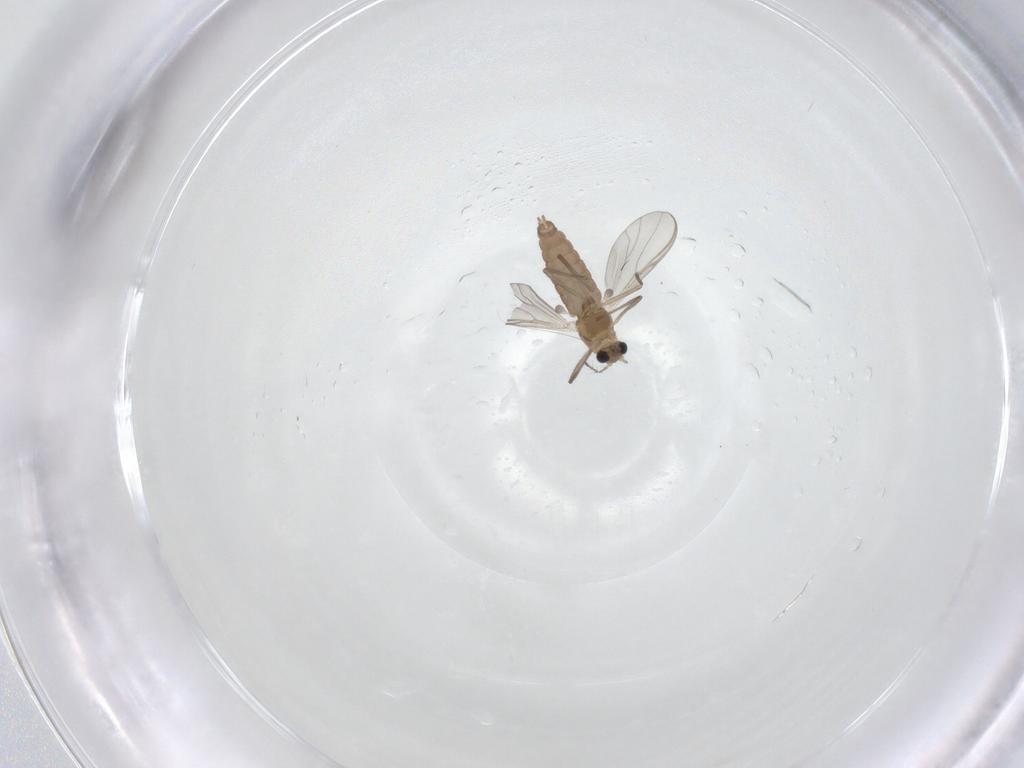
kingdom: Animalia
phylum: Arthropoda
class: Insecta
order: Diptera
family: Chironomidae
